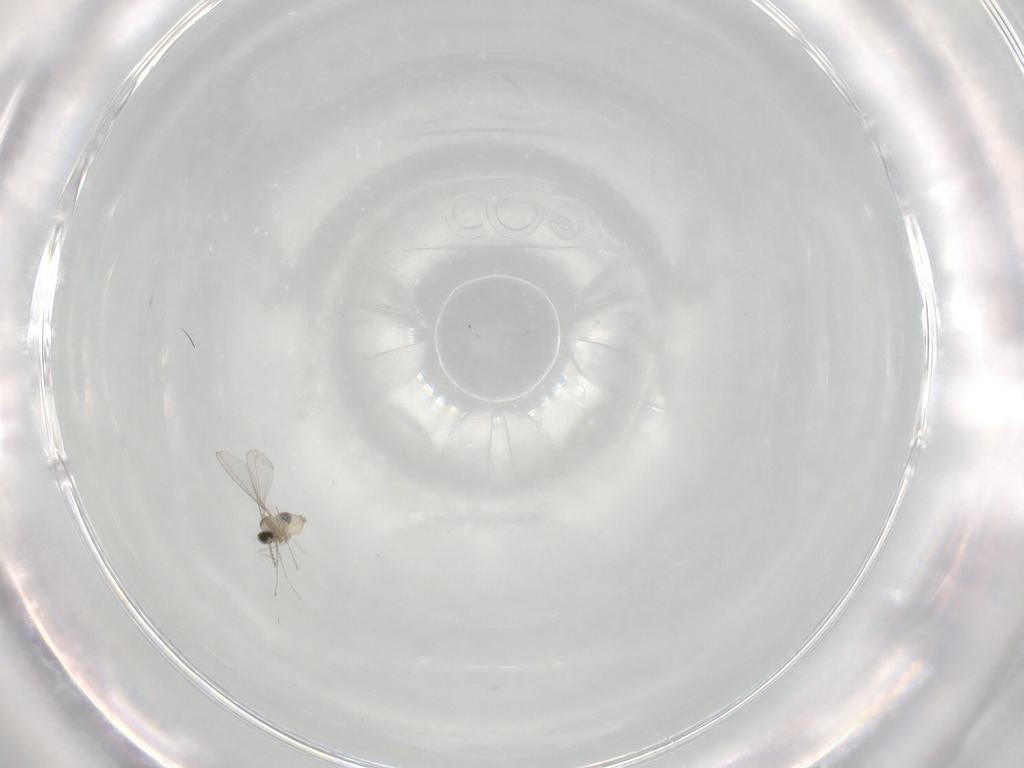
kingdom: Animalia
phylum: Arthropoda
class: Insecta
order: Diptera
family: Cecidomyiidae
